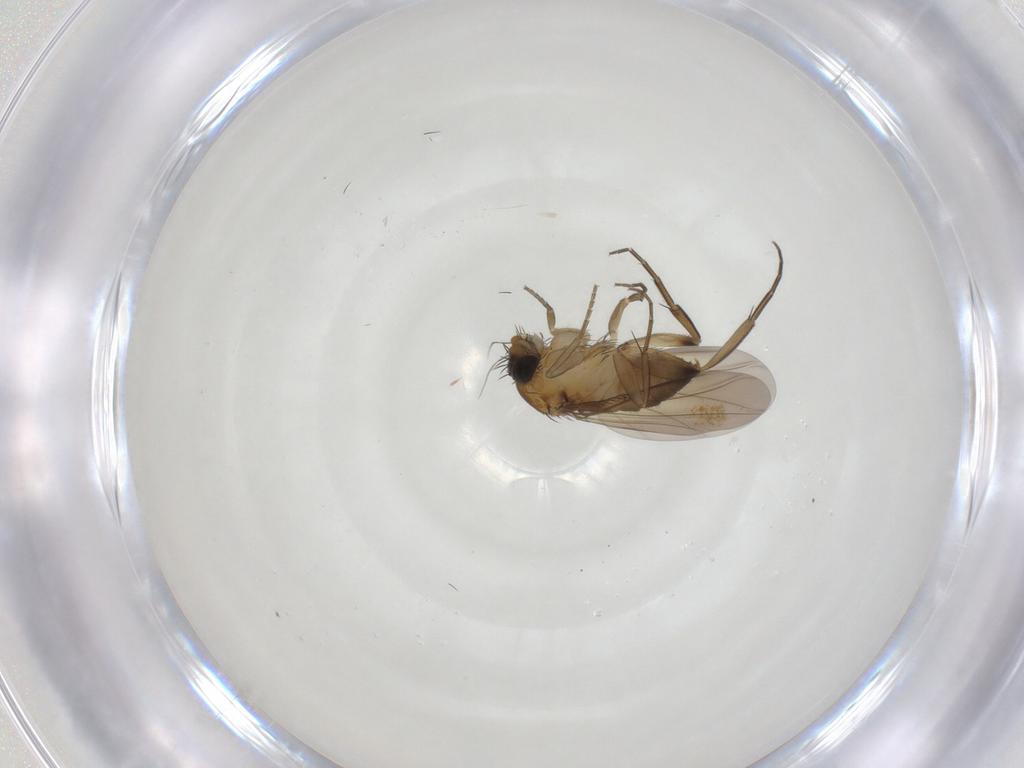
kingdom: Animalia
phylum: Arthropoda
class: Insecta
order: Diptera
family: Phoridae
